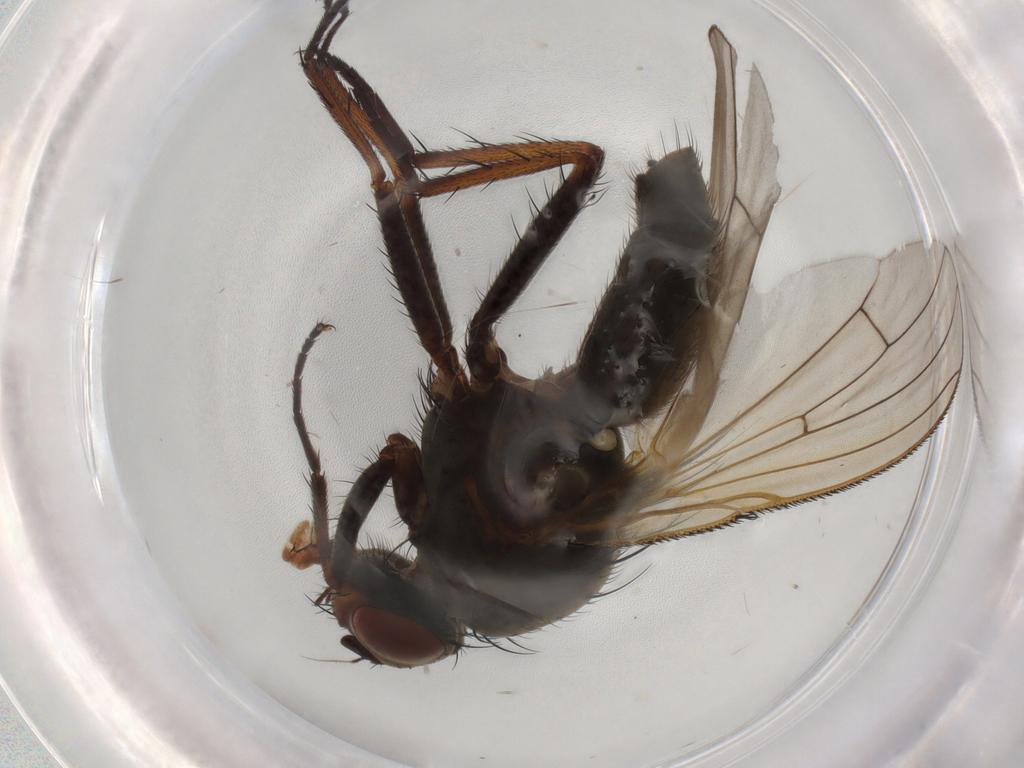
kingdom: Animalia
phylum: Arthropoda
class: Insecta
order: Diptera
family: Anthomyiidae
